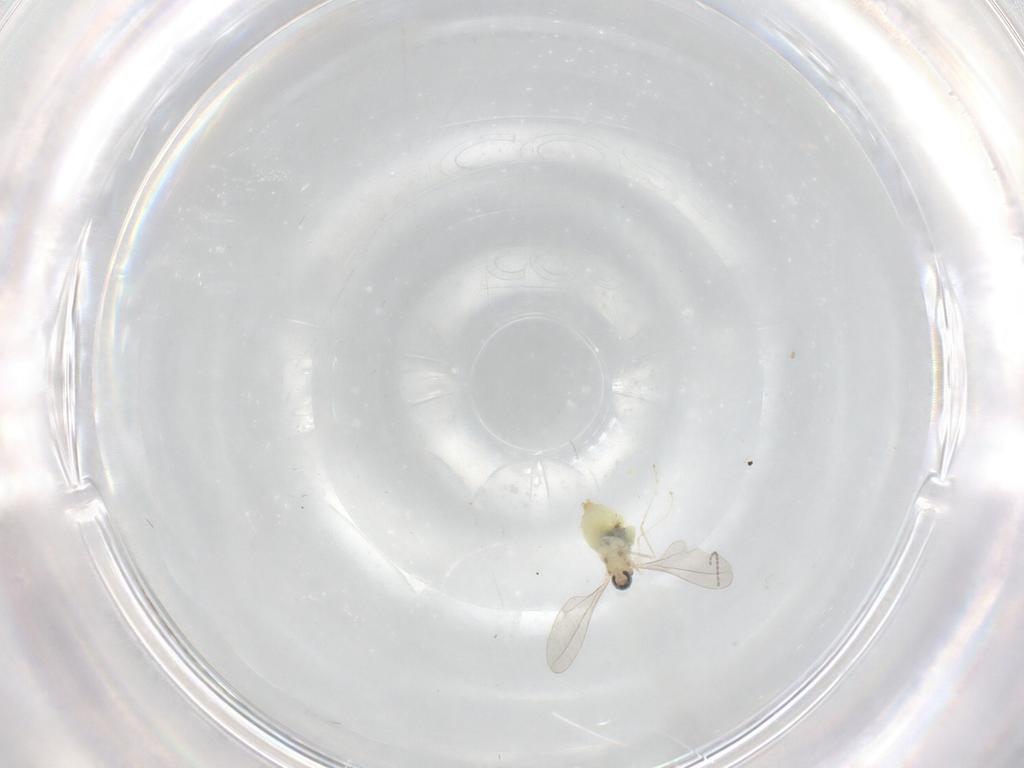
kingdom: Animalia
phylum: Arthropoda
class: Insecta
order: Diptera
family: Cecidomyiidae
